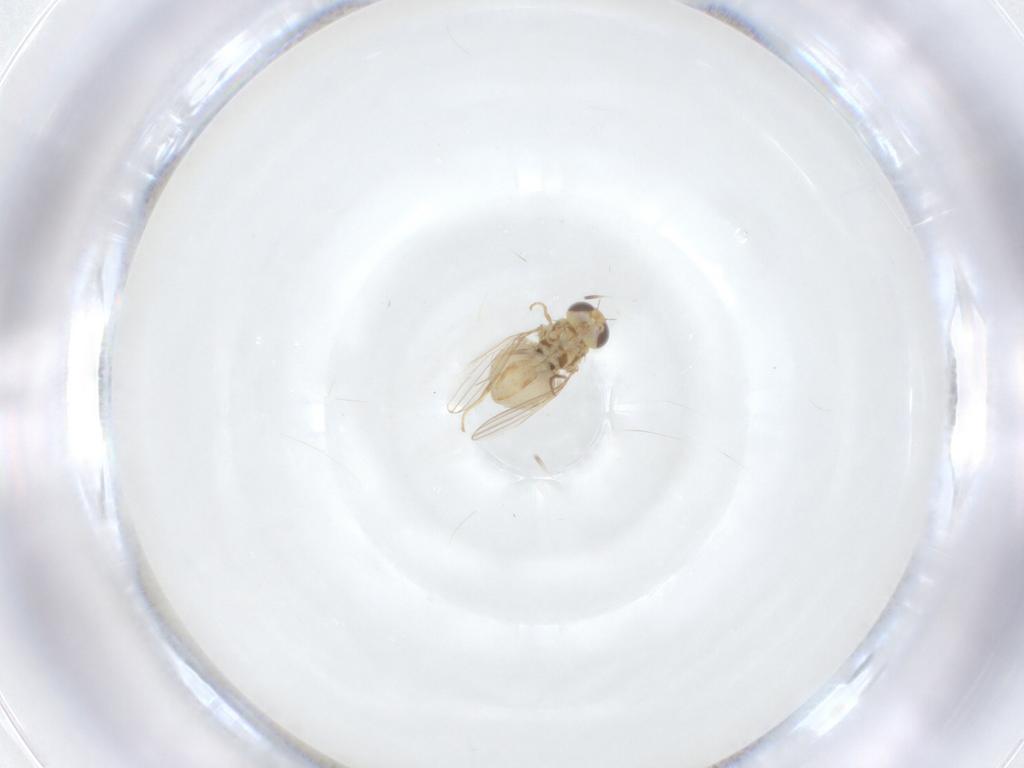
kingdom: Animalia
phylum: Arthropoda
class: Insecta
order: Diptera
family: Chyromyidae
